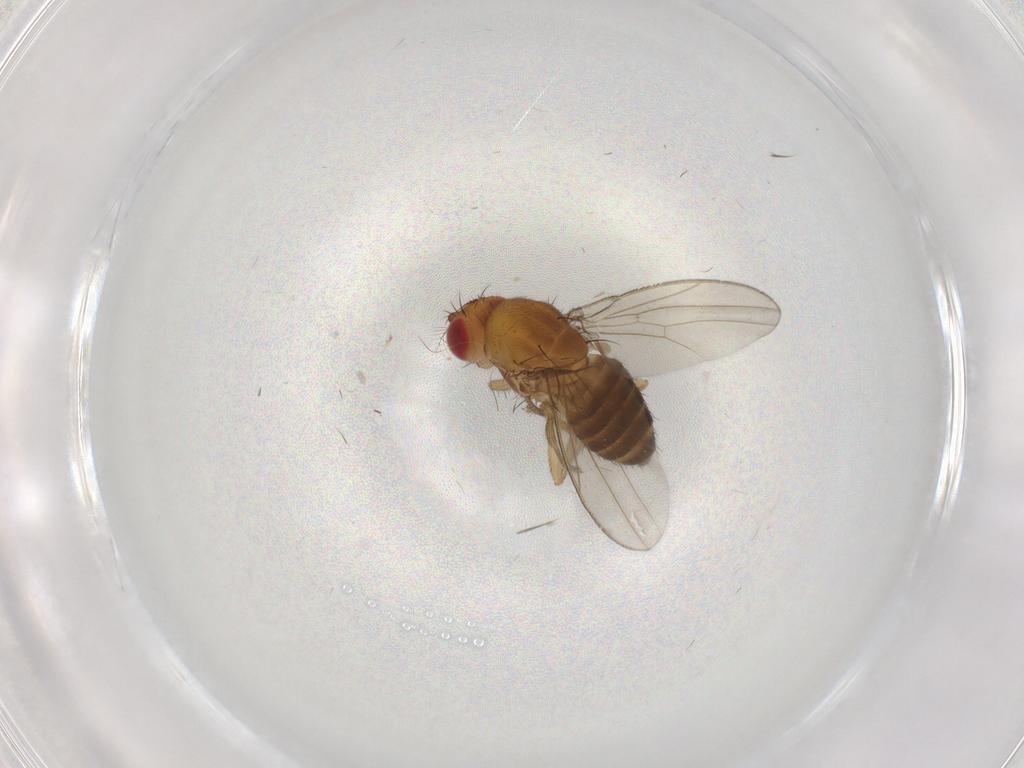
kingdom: Animalia
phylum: Arthropoda
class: Insecta
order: Diptera
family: Drosophilidae
